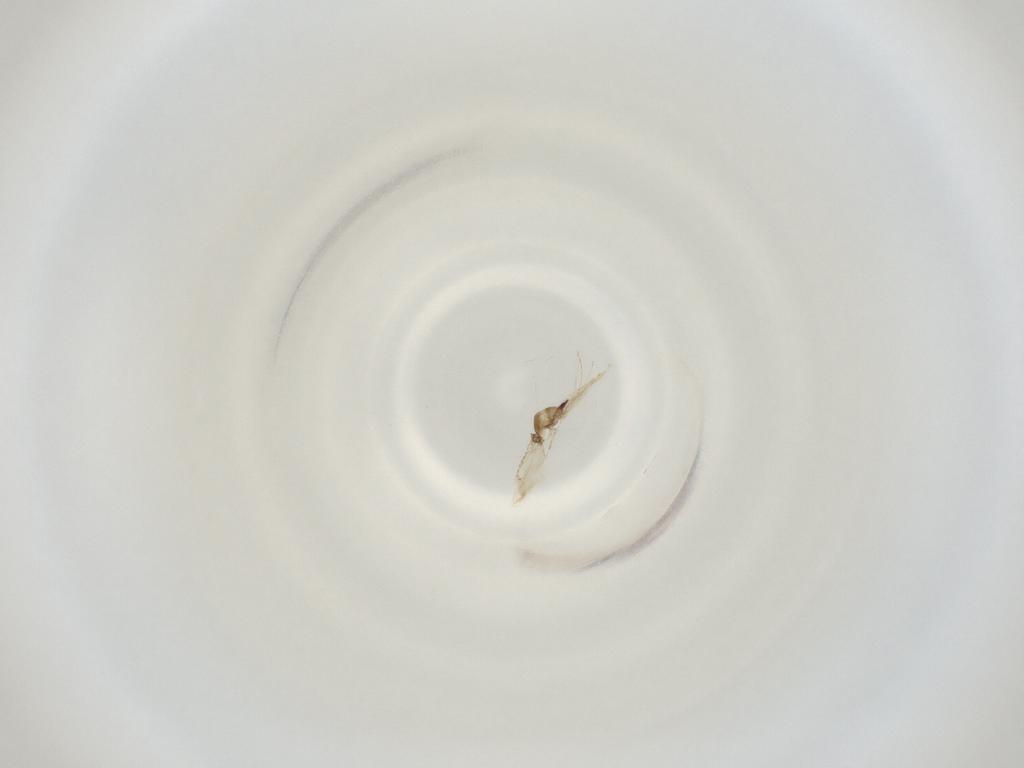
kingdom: Animalia
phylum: Arthropoda
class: Insecta
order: Diptera
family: Cecidomyiidae
